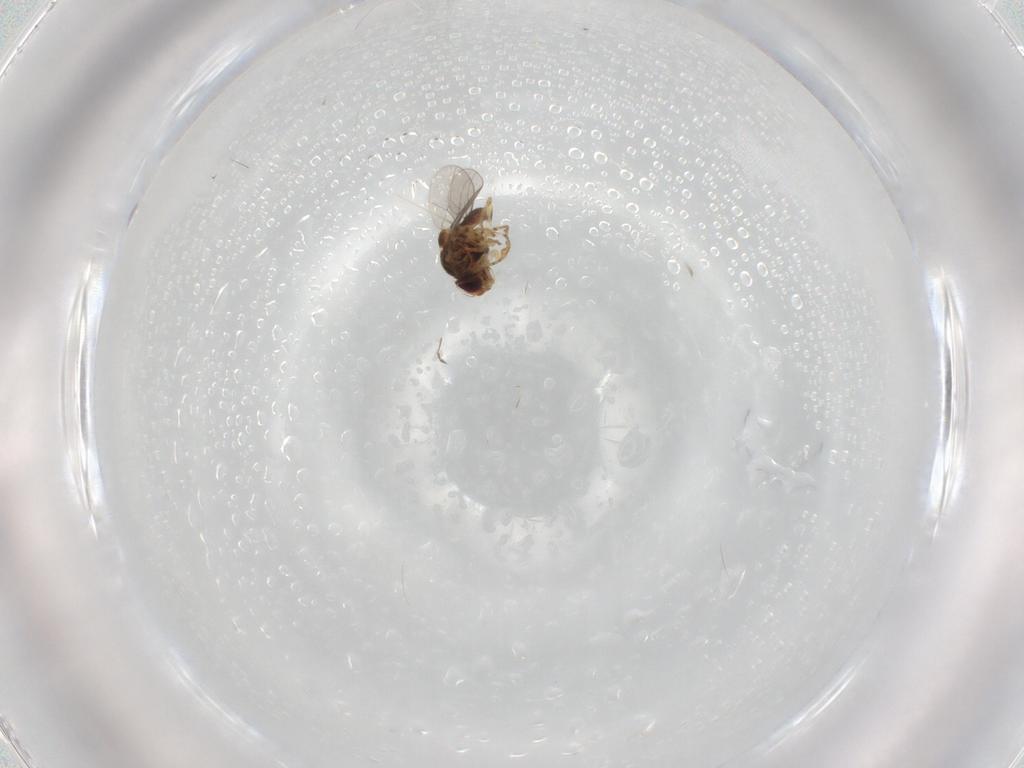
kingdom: Animalia
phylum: Arthropoda
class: Insecta
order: Diptera
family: Chloropidae
